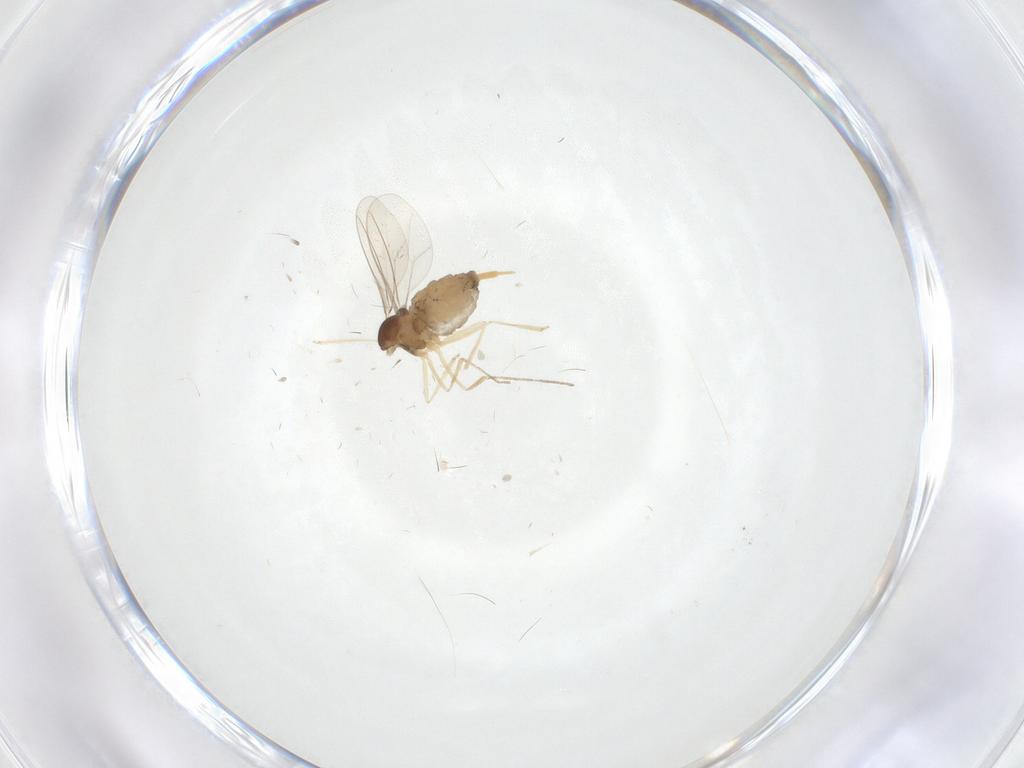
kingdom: Animalia
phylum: Arthropoda
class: Insecta
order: Diptera
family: Cecidomyiidae
